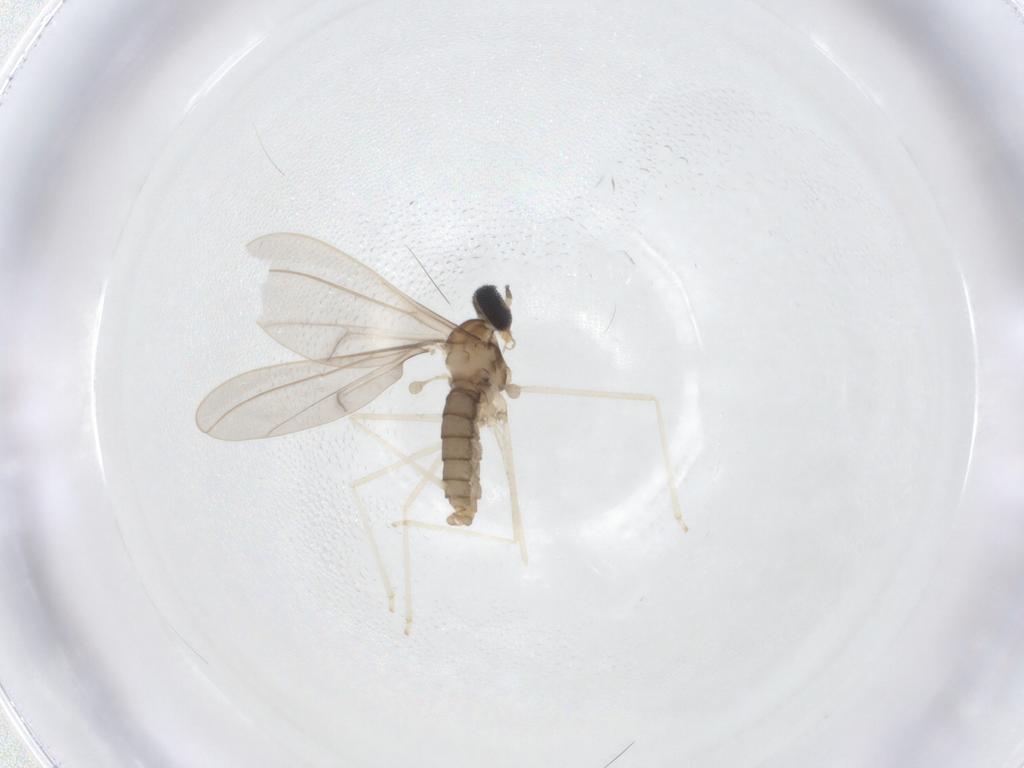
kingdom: Animalia
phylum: Arthropoda
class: Insecta
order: Diptera
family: Cecidomyiidae
